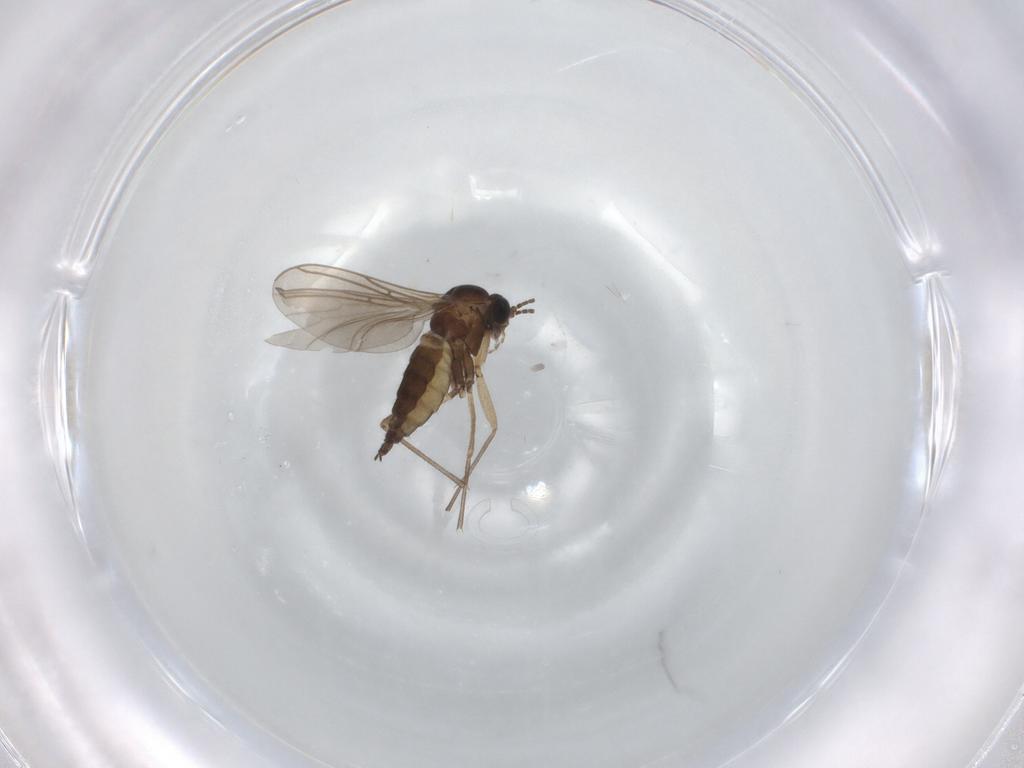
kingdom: Animalia
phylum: Arthropoda
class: Insecta
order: Diptera
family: Sciaridae
